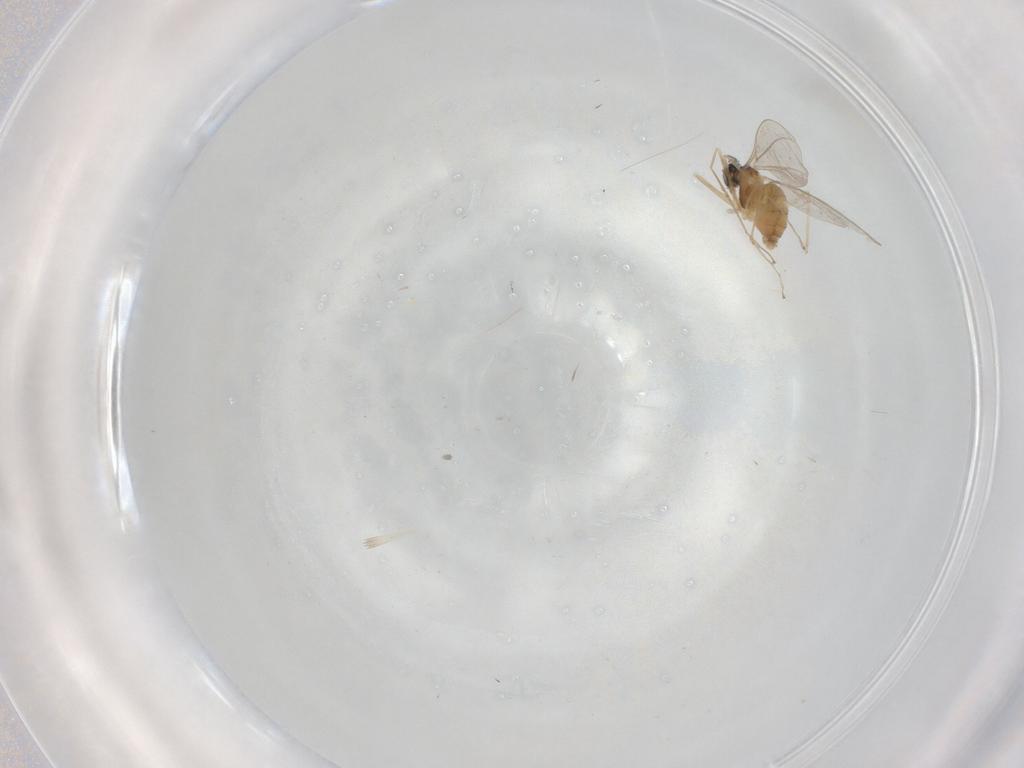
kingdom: Animalia
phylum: Arthropoda
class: Insecta
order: Diptera
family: Cecidomyiidae
